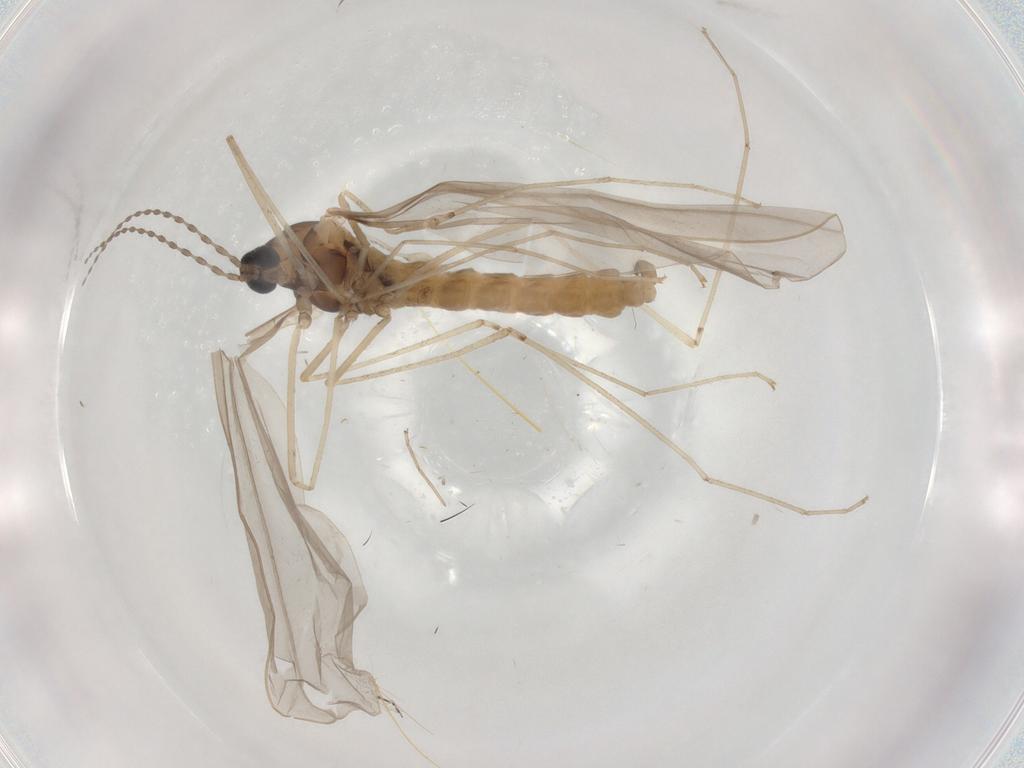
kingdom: Animalia
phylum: Arthropoda
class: Insecta
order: Diptera
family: Cecidomyiidae
